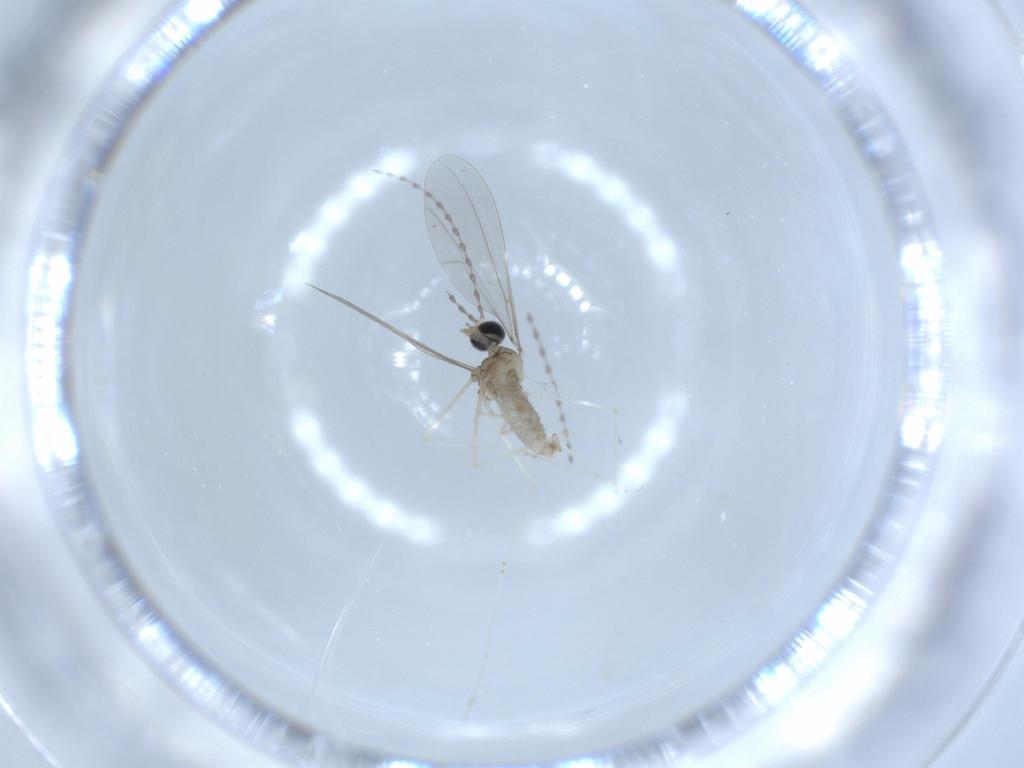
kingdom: Animalia
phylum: Arthropoda
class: Insecta
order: Diptera
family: Cecidomyiidae
